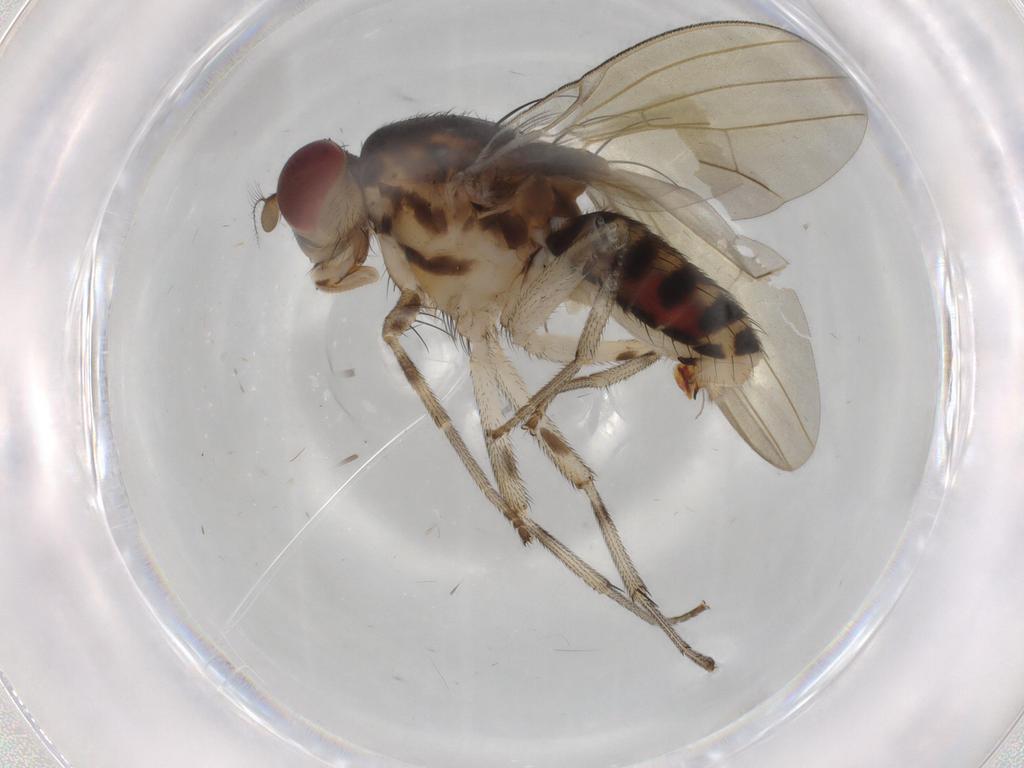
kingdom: Animalia
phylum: Arthropoda
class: Insecta
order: Diptera
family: Chironomidae
